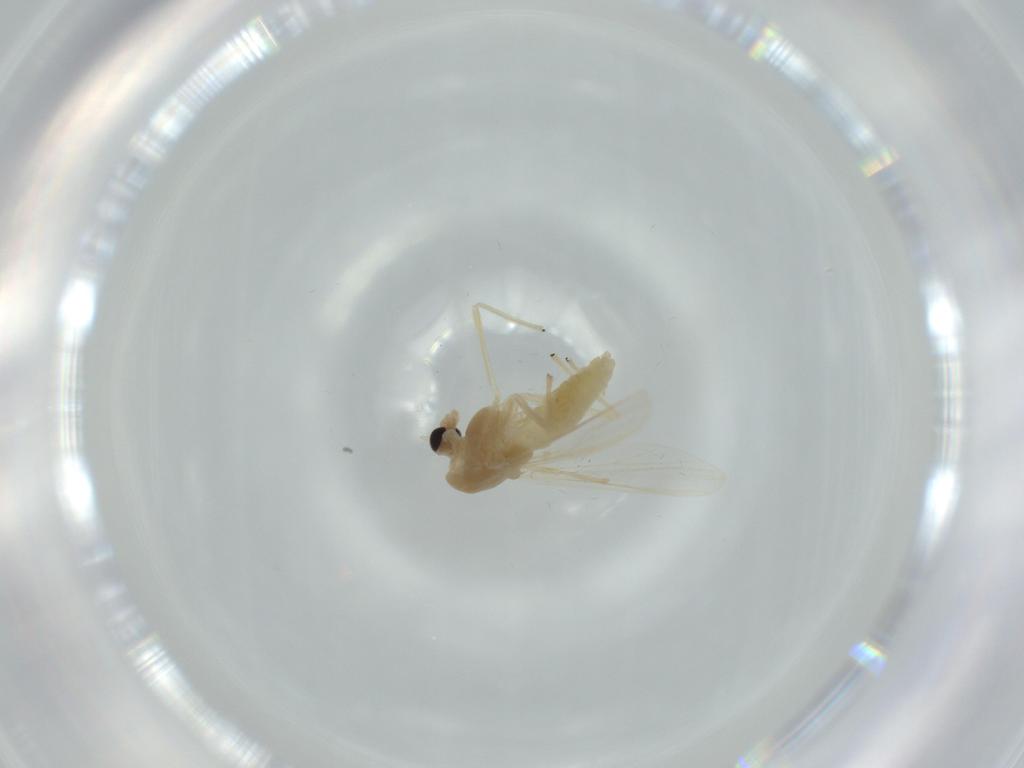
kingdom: Animalia
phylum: Arthropoda
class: Insecta
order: Diptera
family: Chironomidae
